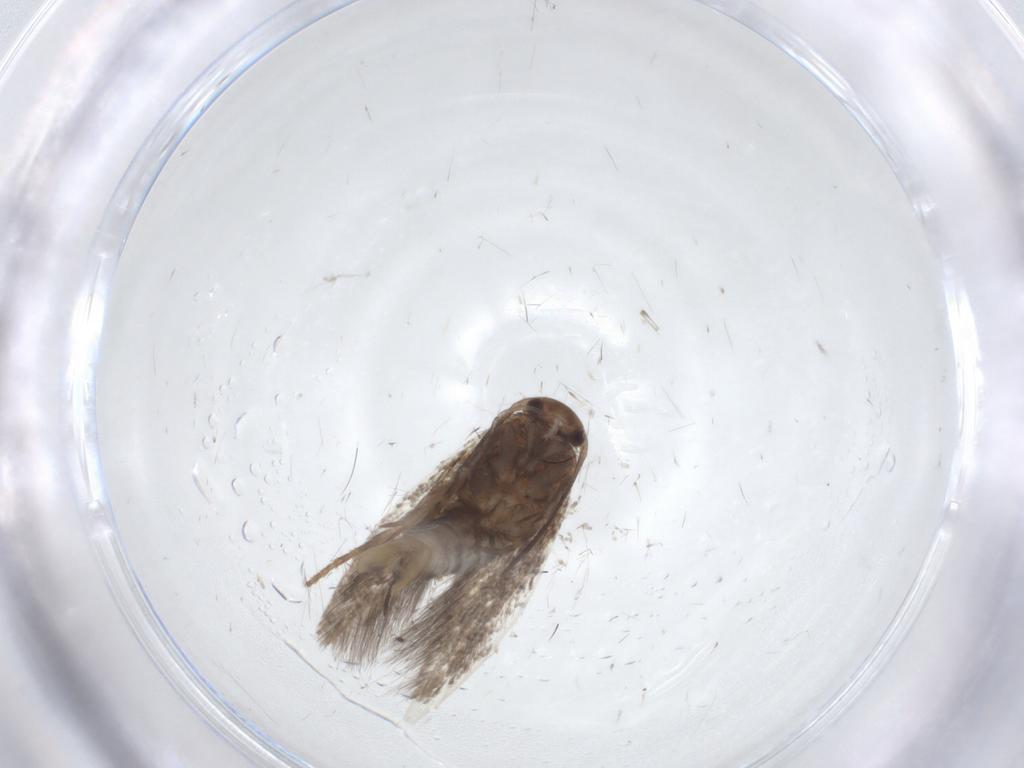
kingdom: Animalia
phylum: Arthropoda
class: Insecta
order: Lepidoptera
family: Elachistidae
